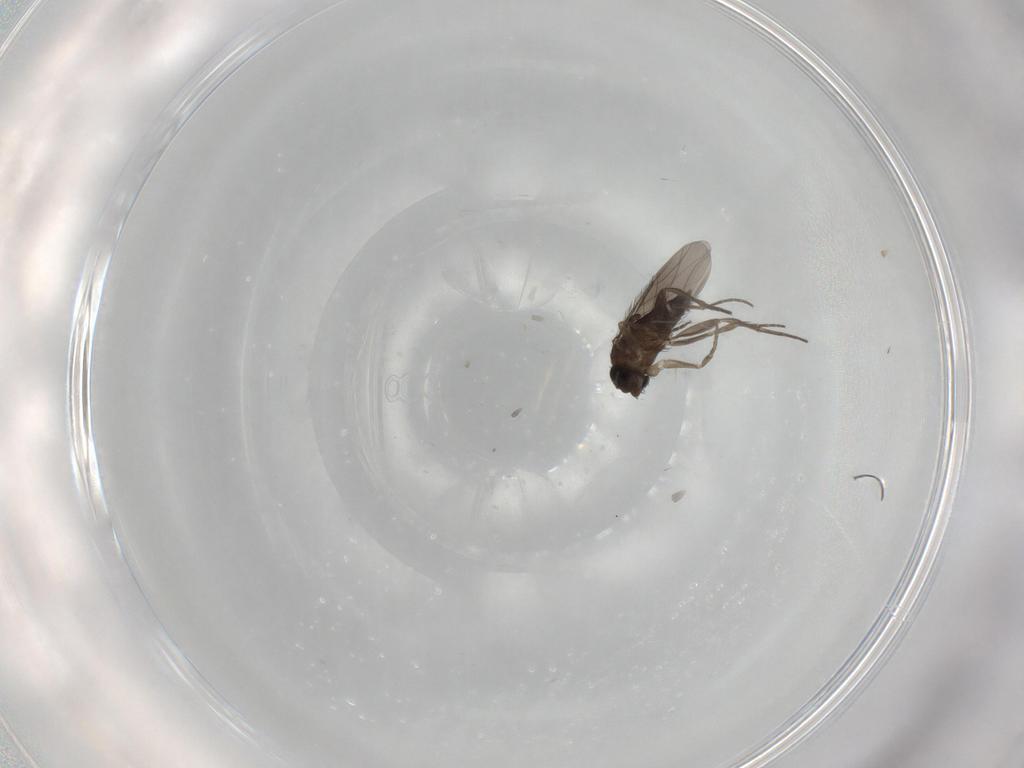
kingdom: Animalia
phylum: Arthropoda
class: Insecta
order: Diptera
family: Phoridae
